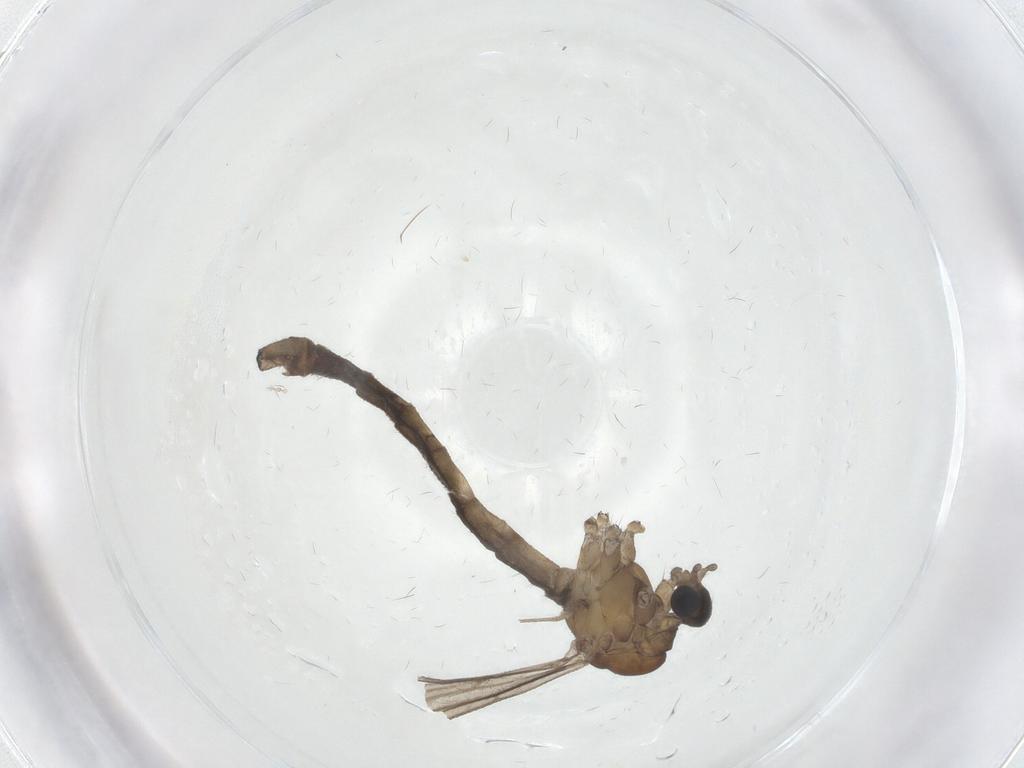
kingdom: Animalia
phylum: Arthropoda
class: Insecta
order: Diptera
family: Limoniidae
